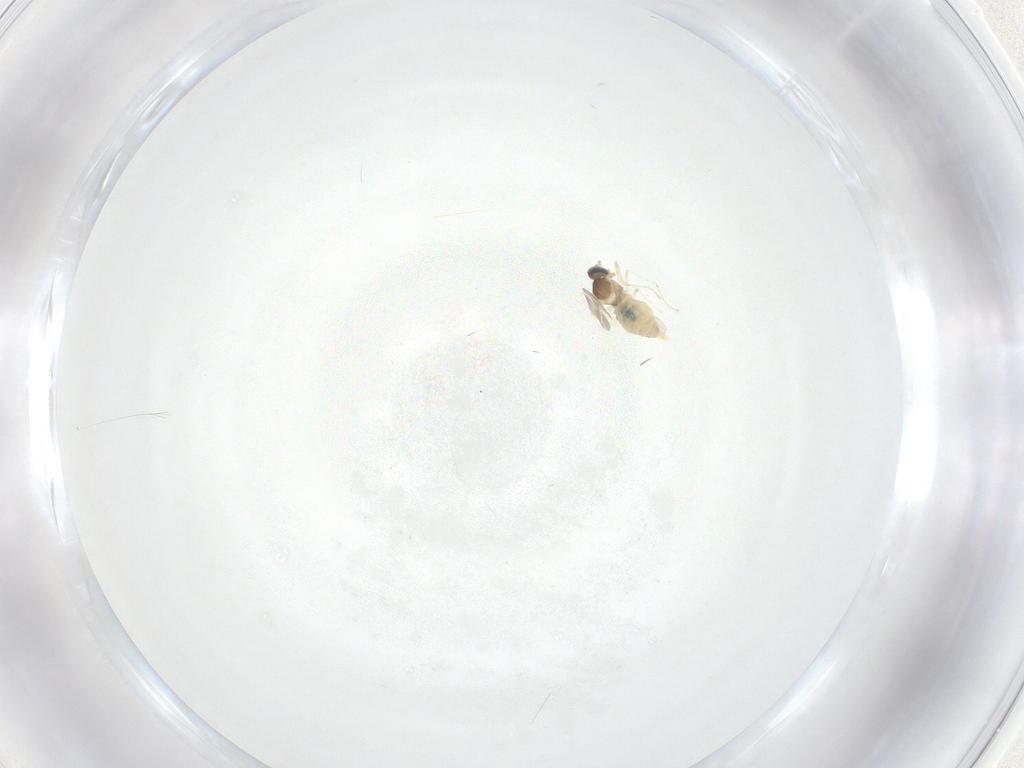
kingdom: Animalia
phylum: Arthropoda
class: Insecta
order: Diptera
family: Cecidomyiidae
